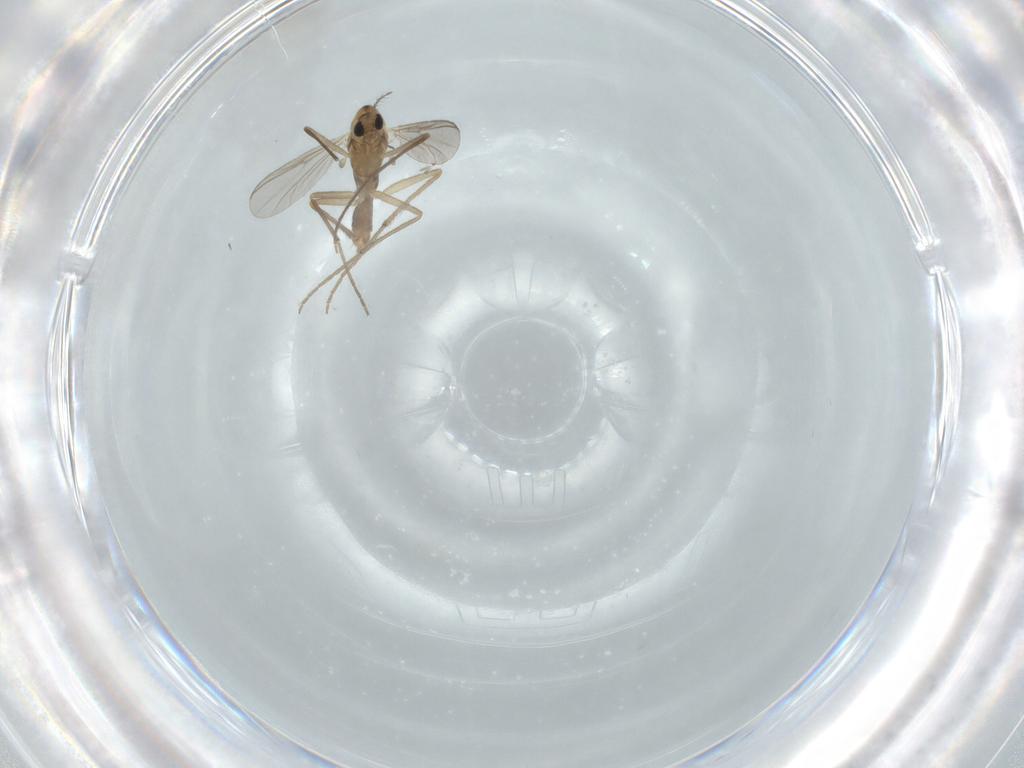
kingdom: Animalia
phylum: Arthropoda
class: Insecta
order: Diptera
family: Chironomidae
